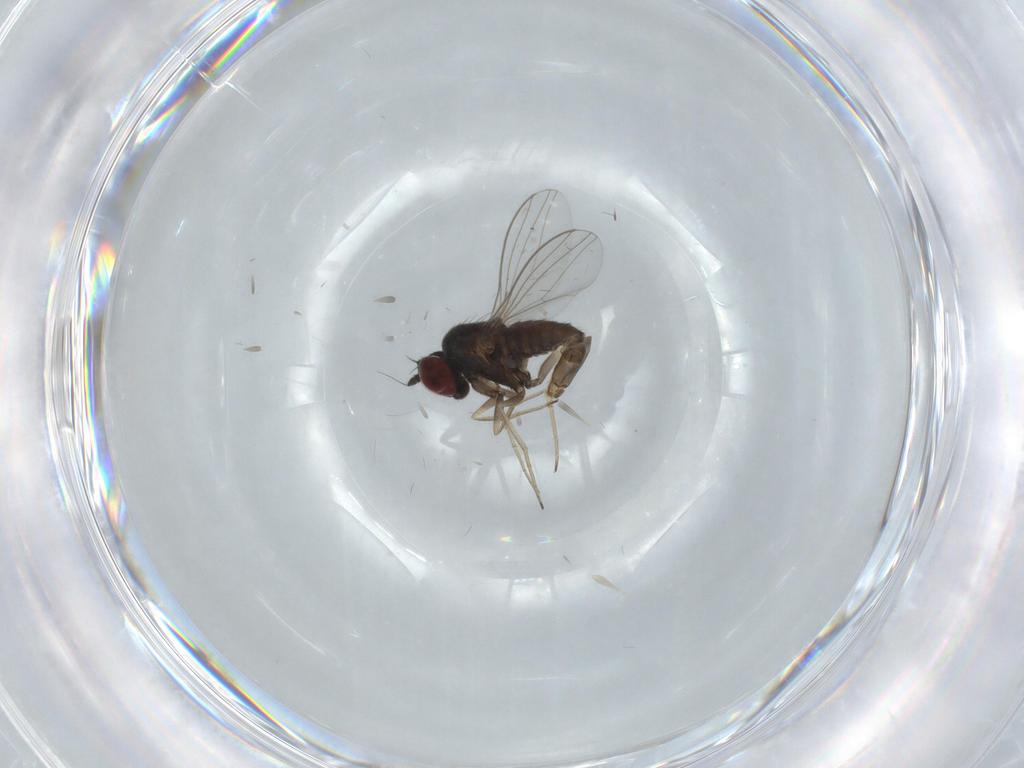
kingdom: Animalia
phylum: Arthropoda
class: Insecta
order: Diptera
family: Dolichopodidae
